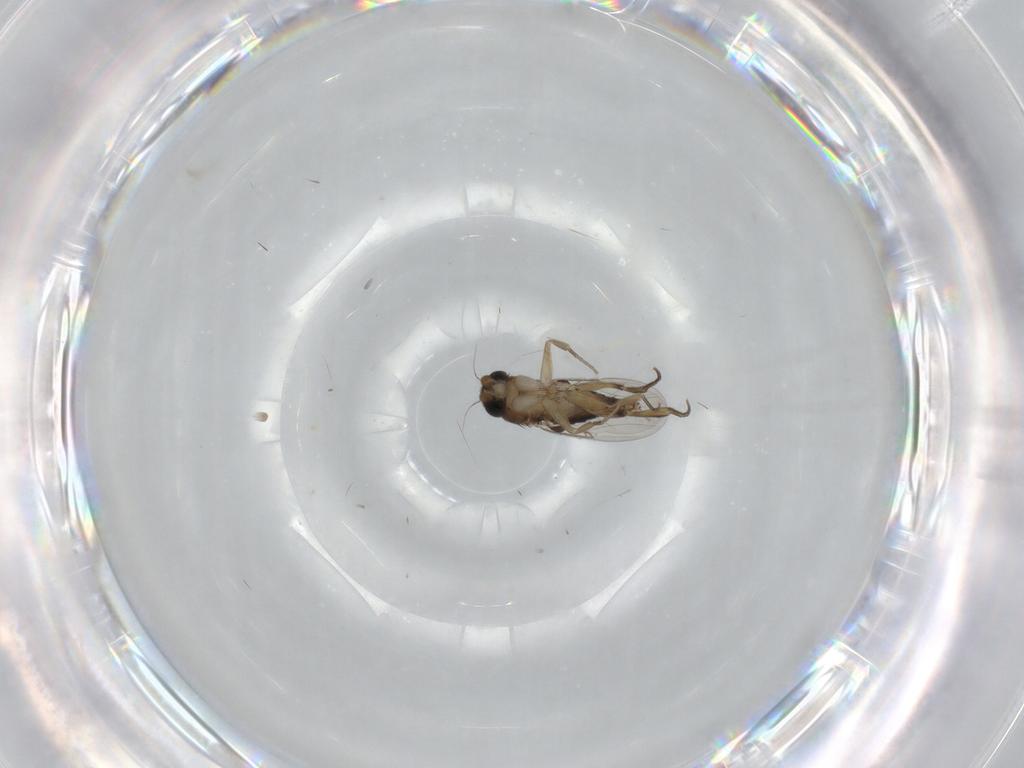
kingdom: Animalia
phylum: Arthropoda
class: Insecta
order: Diptera
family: Phoridae
